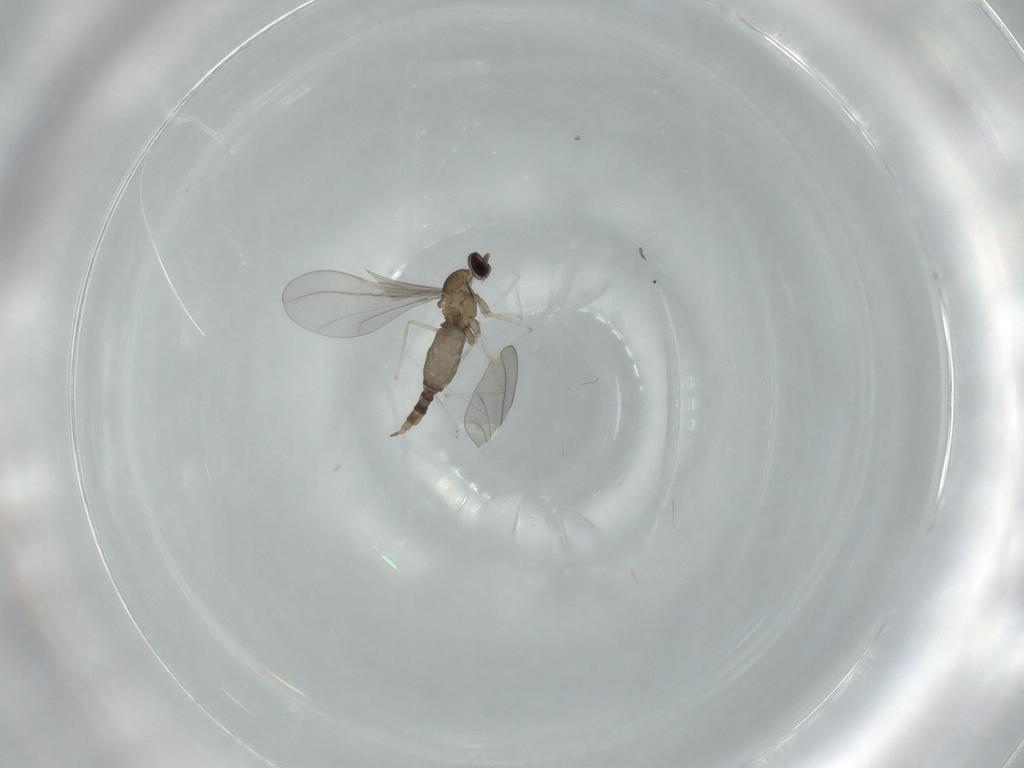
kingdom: Animalia
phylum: Arthropoda
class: Insecta
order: Diptera
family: Cecidomyiidae
